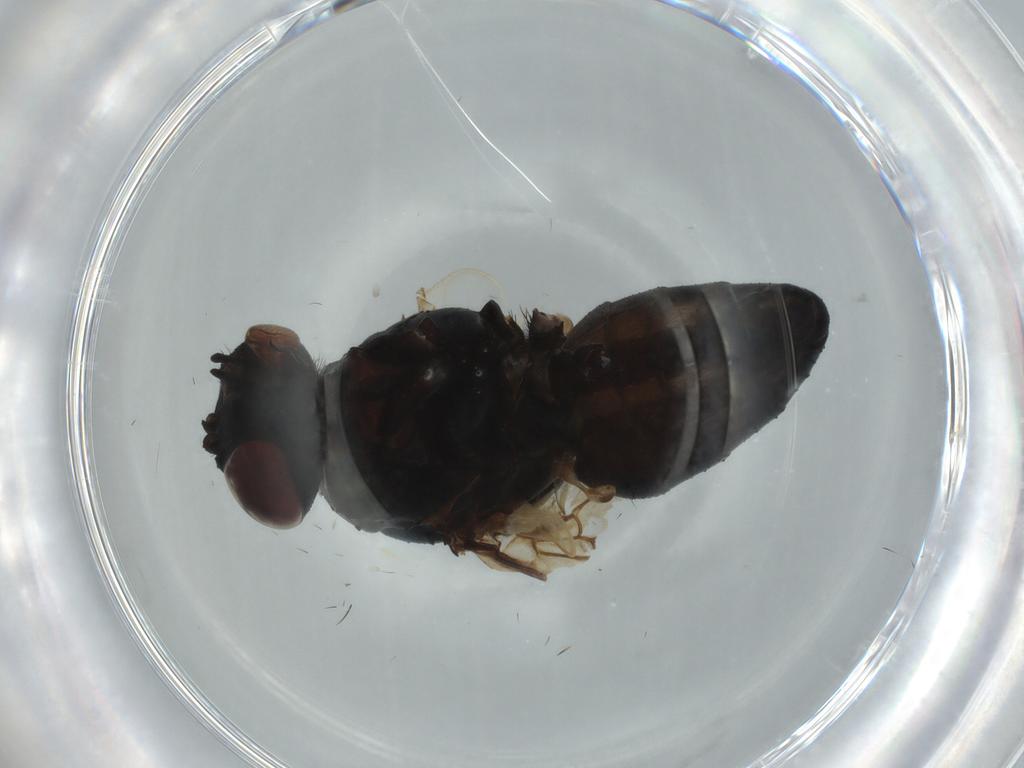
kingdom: Animalia
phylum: Arthropoda
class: Insecta
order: Diptera
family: Muscidae
